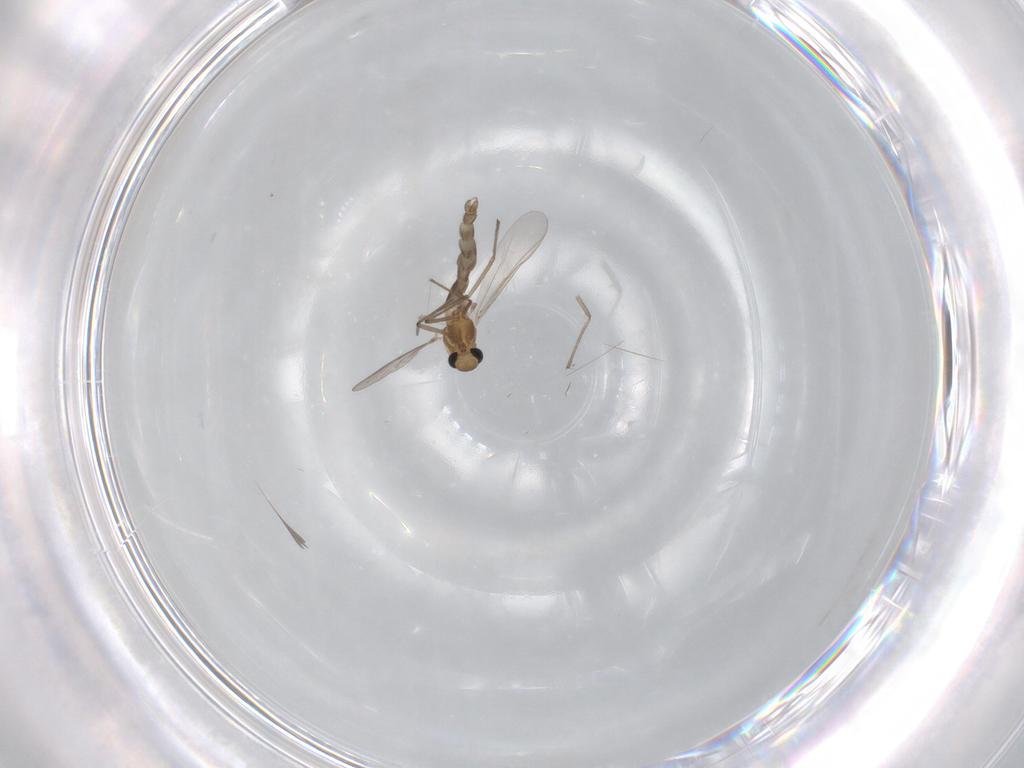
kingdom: Animalia
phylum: Arthropoda
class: Insecta
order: Diptera
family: Chironomidae
